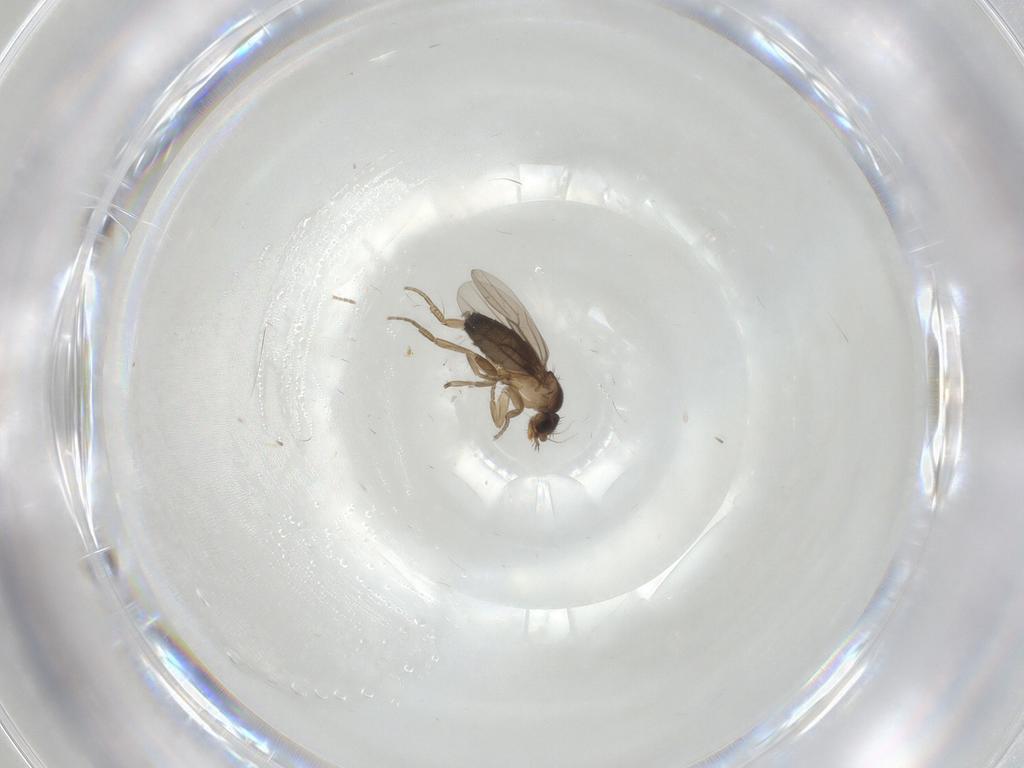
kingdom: Animalia
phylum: Arthropoda
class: Insecta
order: Diptera
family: Phoridae
